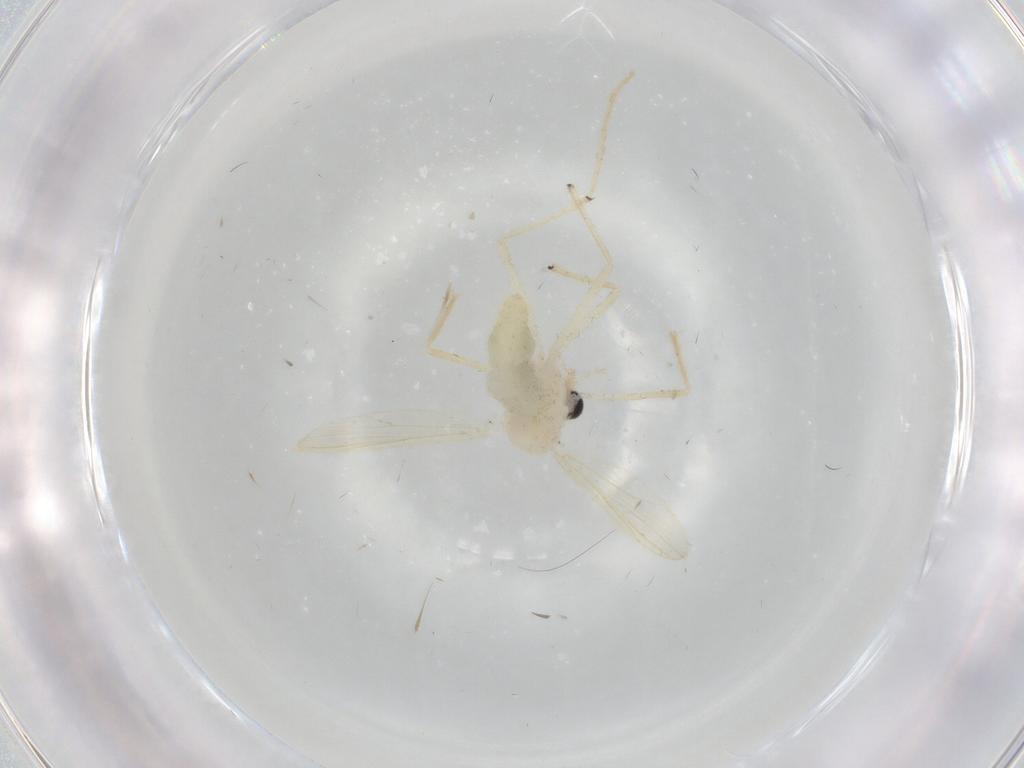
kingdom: Animalia
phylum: Arthropoda
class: Insecta
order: Diptera
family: Chironomidae
